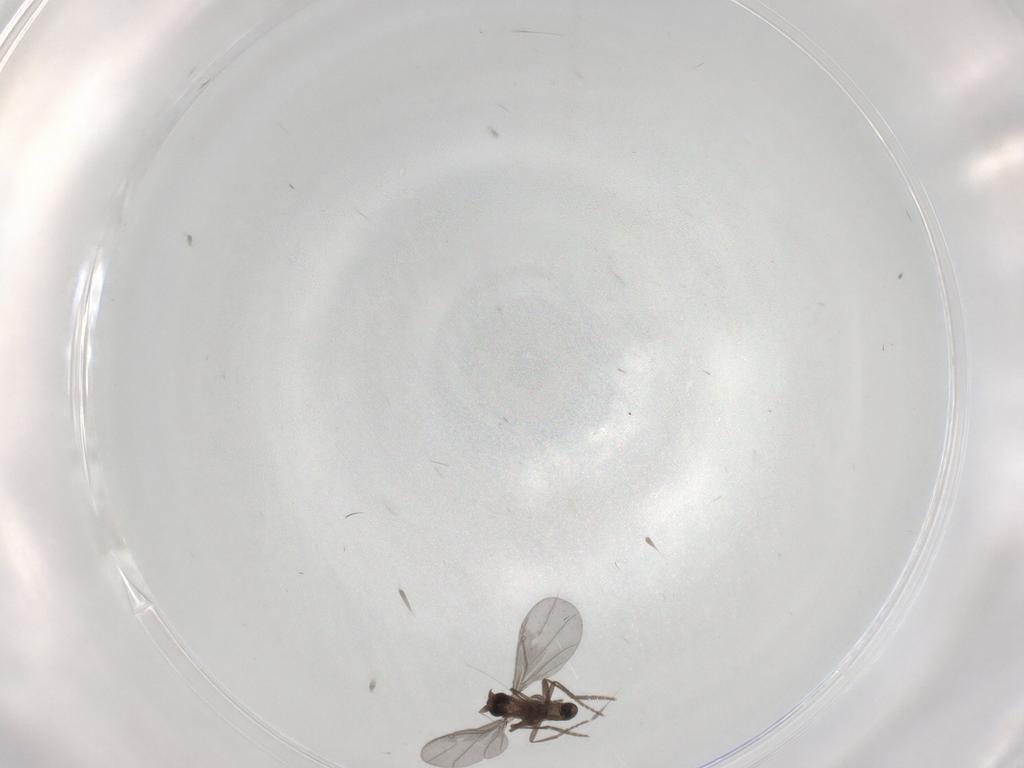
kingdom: Animalia
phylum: Arthropoda
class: Insecta
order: Diptera
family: Phoridae
